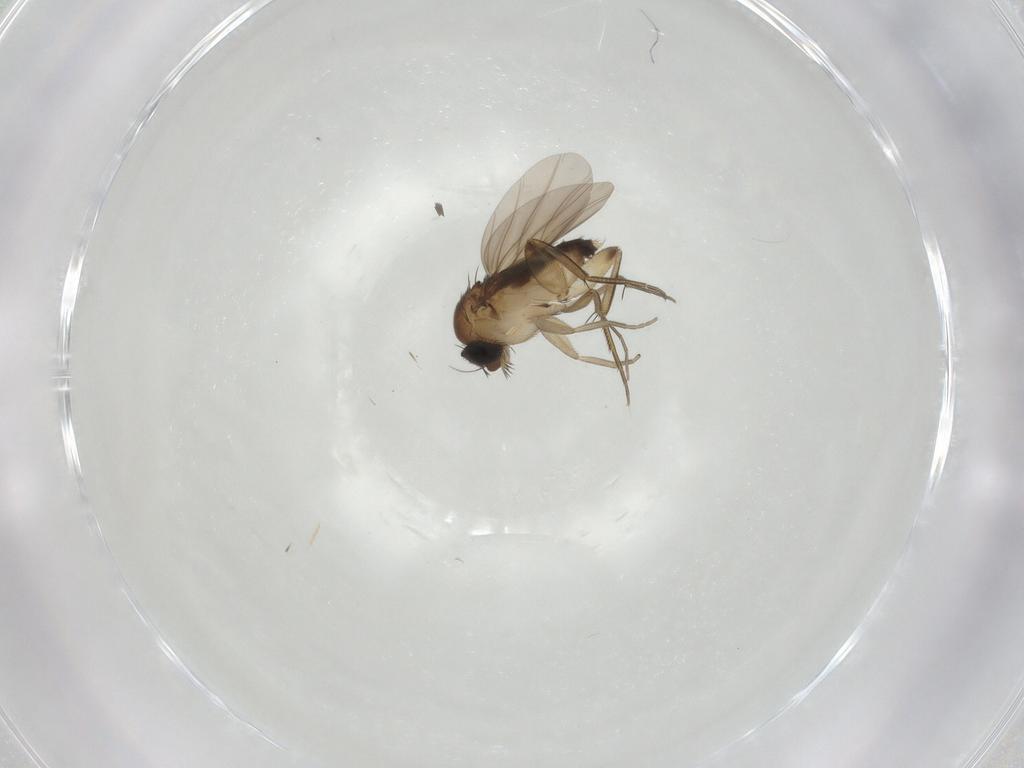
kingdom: Animalia
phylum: Arthropoda
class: Insecta
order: Diptera
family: Phoridae
